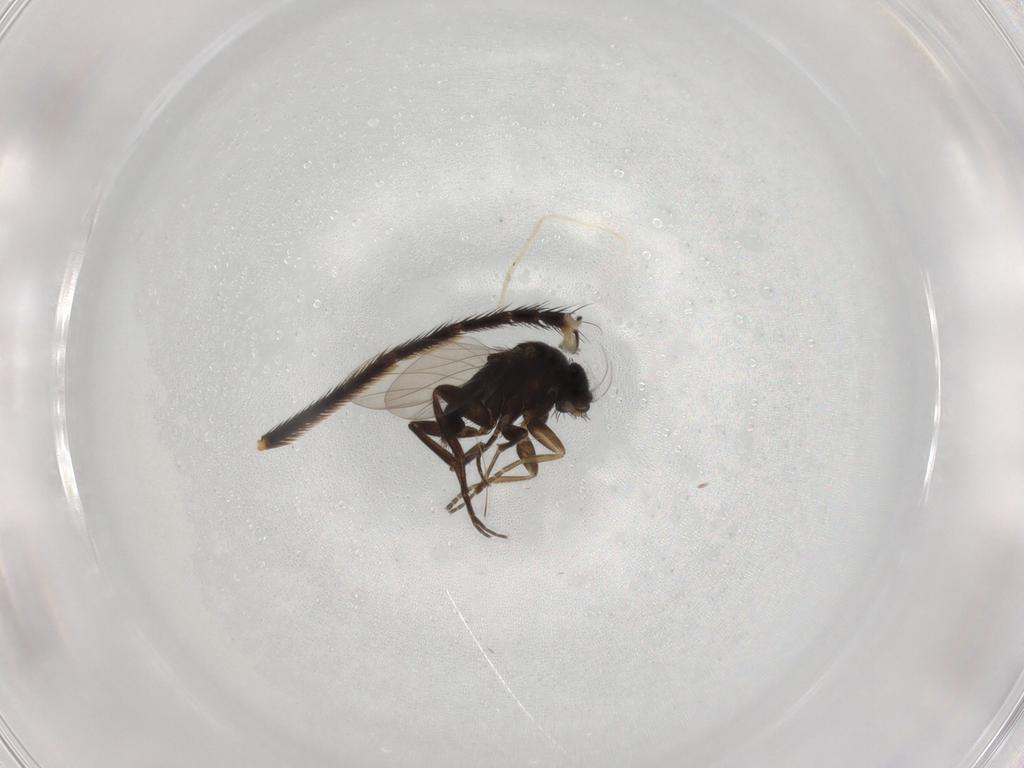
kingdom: Animalia
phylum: Arthropoda
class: Insecta
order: Diptera
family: Phoridae
